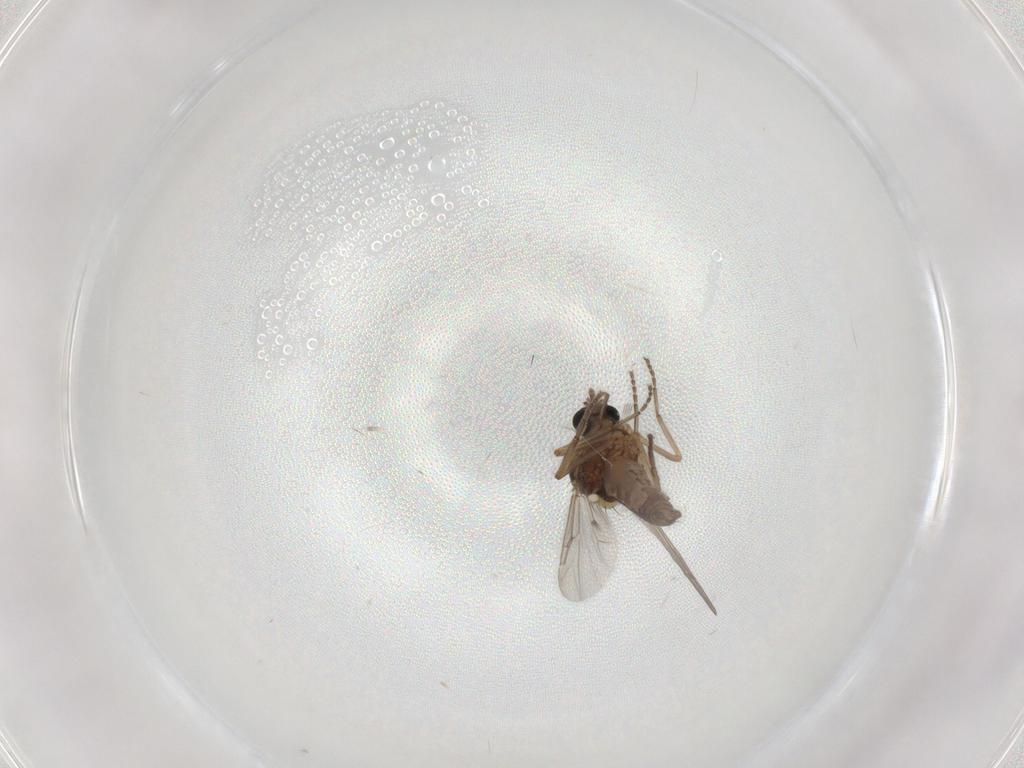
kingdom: Animalia
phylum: Arthropoda
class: Insecta
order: Diptera
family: Ceratopogonidae
